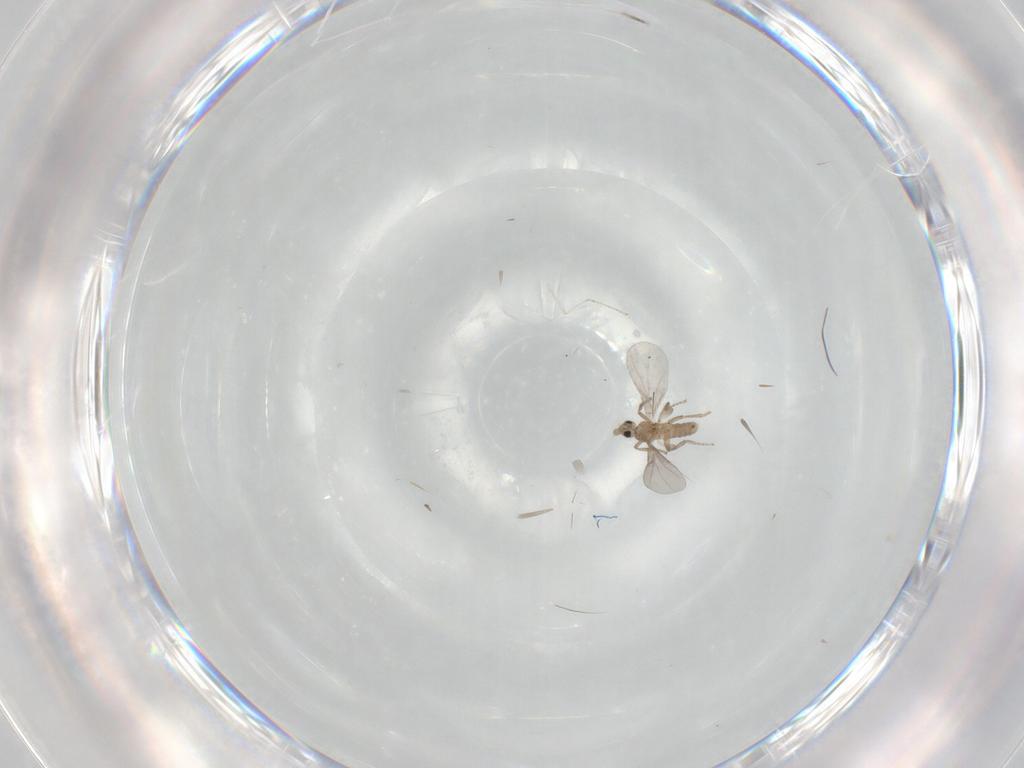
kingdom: Animalia
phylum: Arthropoda
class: Insecta
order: Diptera
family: Phoridae
